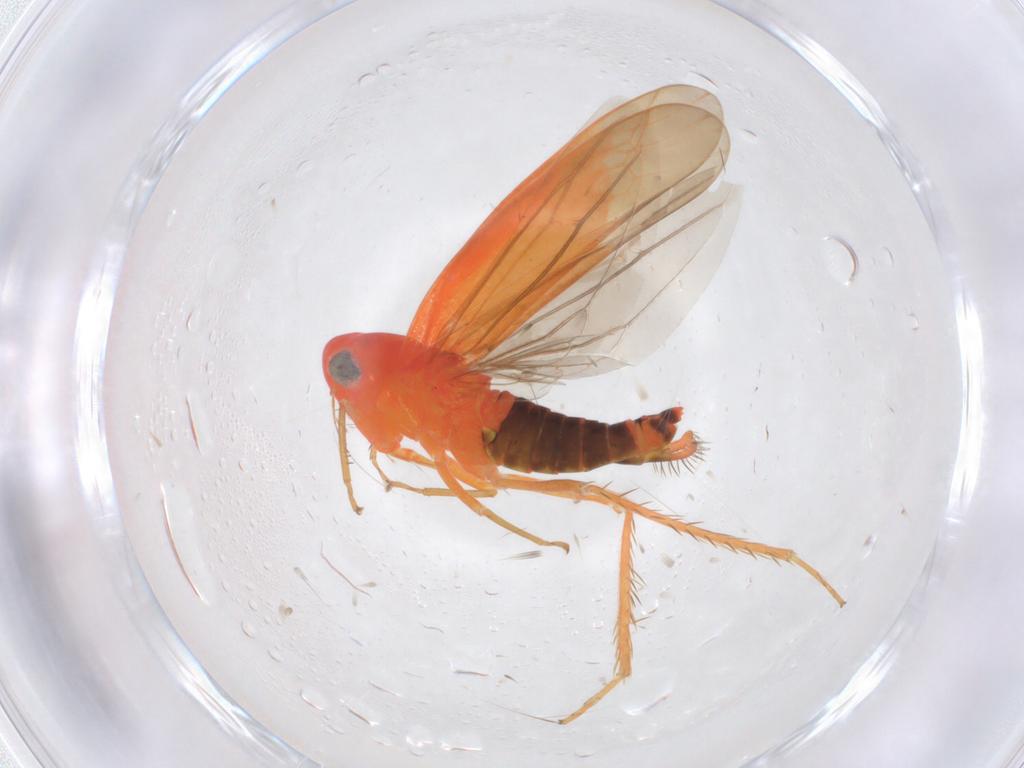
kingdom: Animalia
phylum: Arthropoda
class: Insecta
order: Hemiptera
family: Cicadellidae
